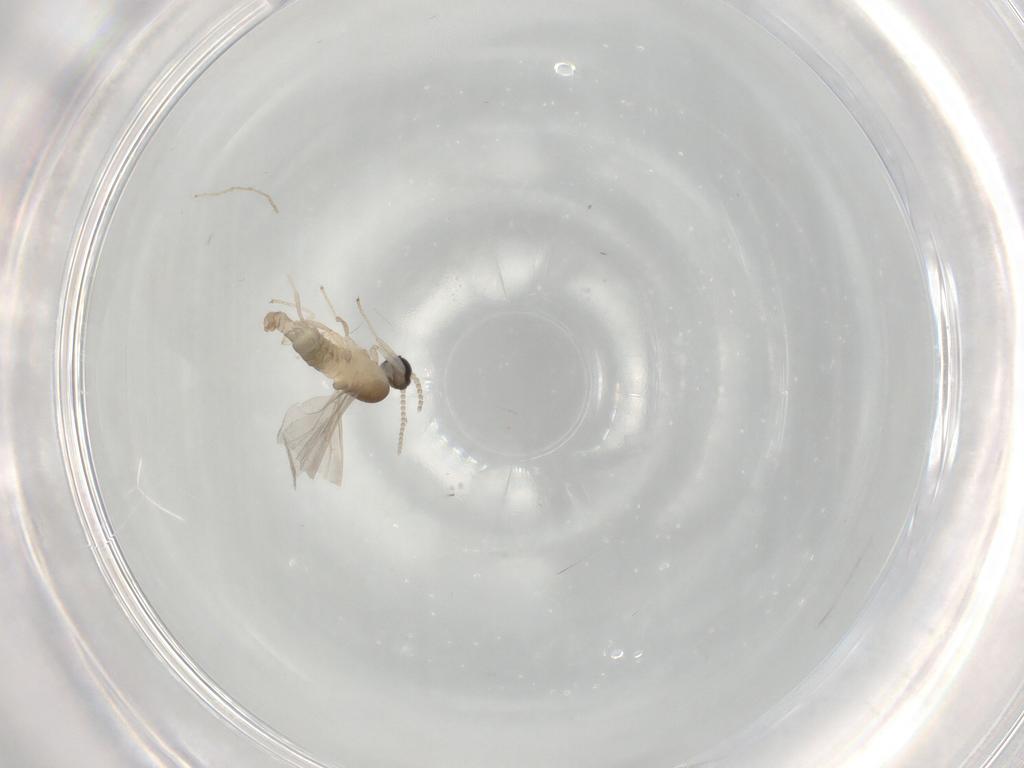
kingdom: Animalia
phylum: Arthropoda
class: Insecta
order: Diptera
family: Cecidomyiidae
